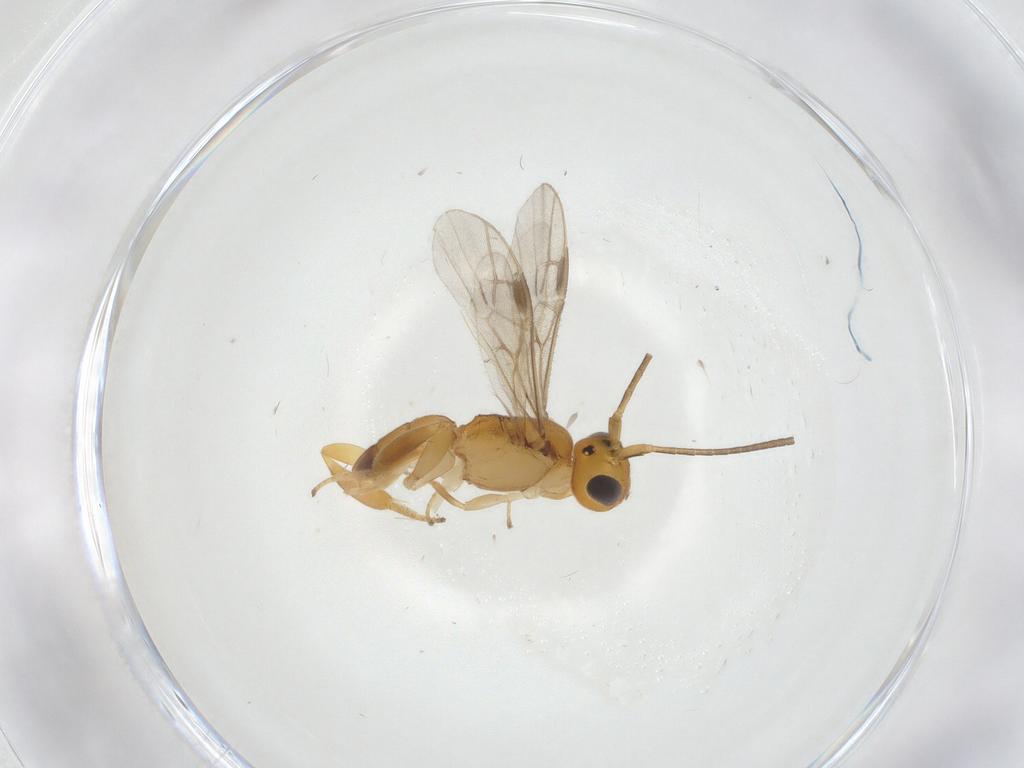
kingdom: Animalia
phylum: Arthropoda
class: Insecta
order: Hymenoptera
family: Braconidae
